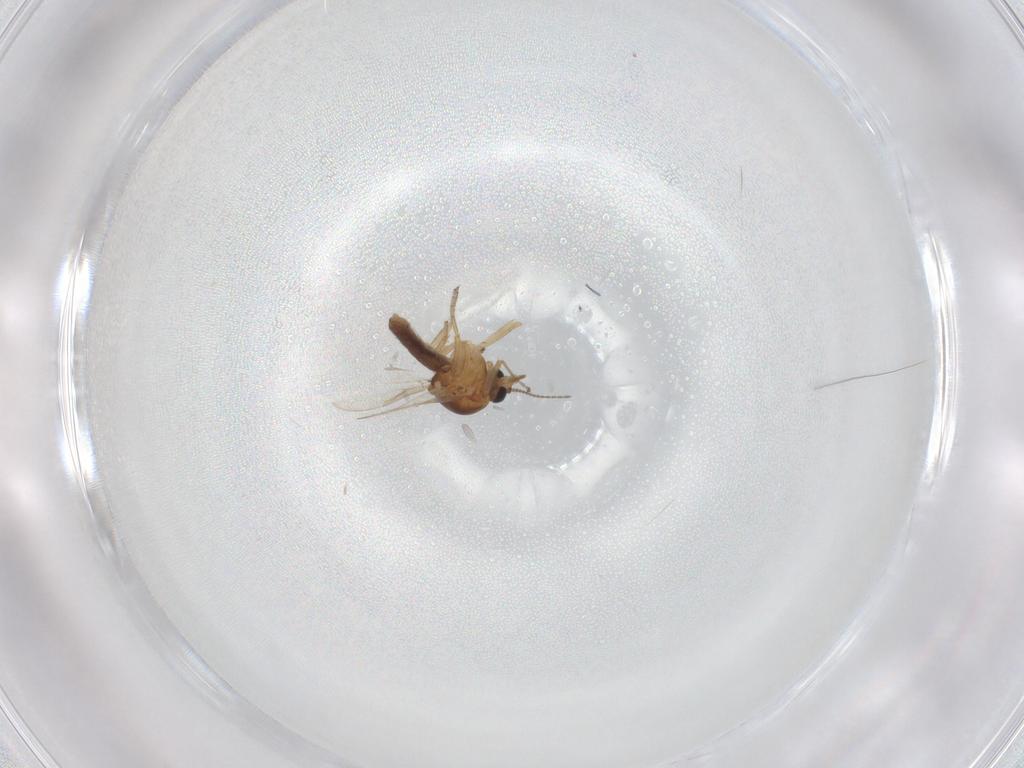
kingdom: Animalia
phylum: Arthropoda
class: Insecta
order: Diptera
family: Ceratopogonidae
